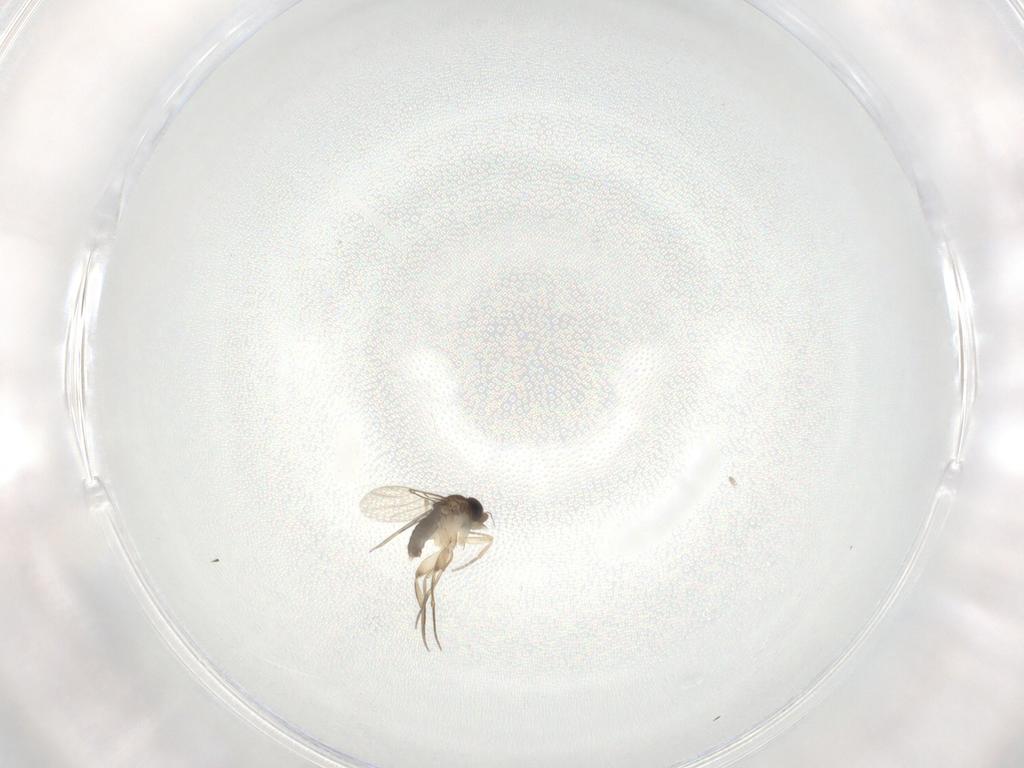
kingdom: Animalia
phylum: Arthropoda
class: Insecta
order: Diptera
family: Phoridae
